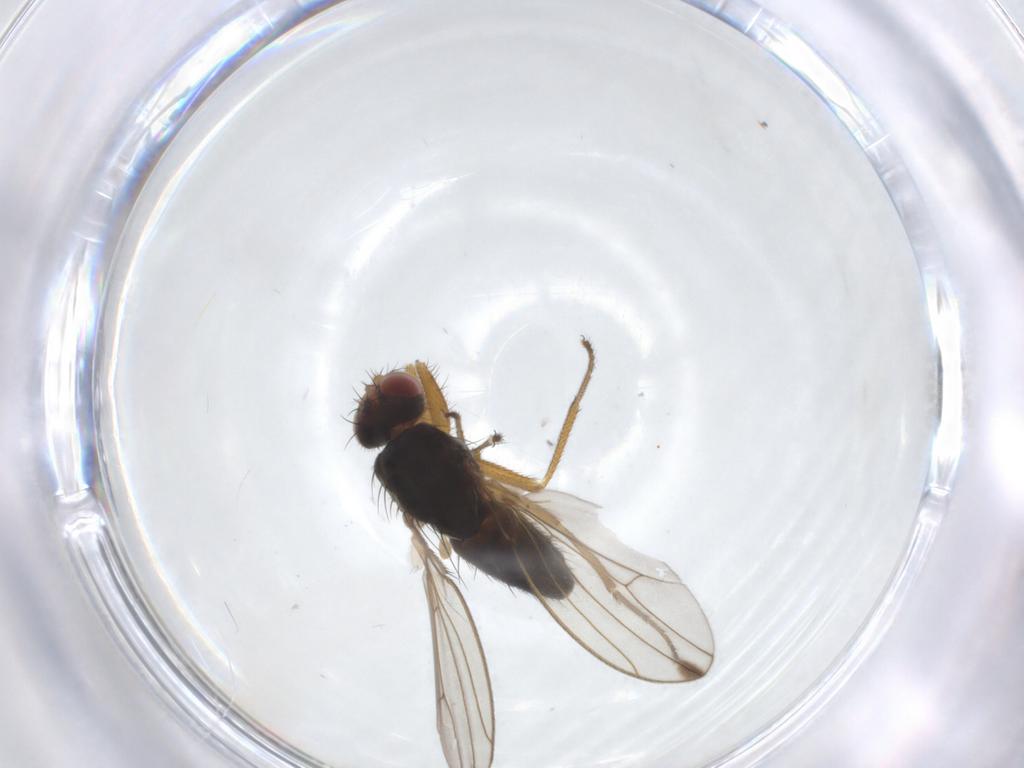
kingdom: Animalia
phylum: Arthropoda
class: Insecta
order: Diptera
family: Drosophilidae
